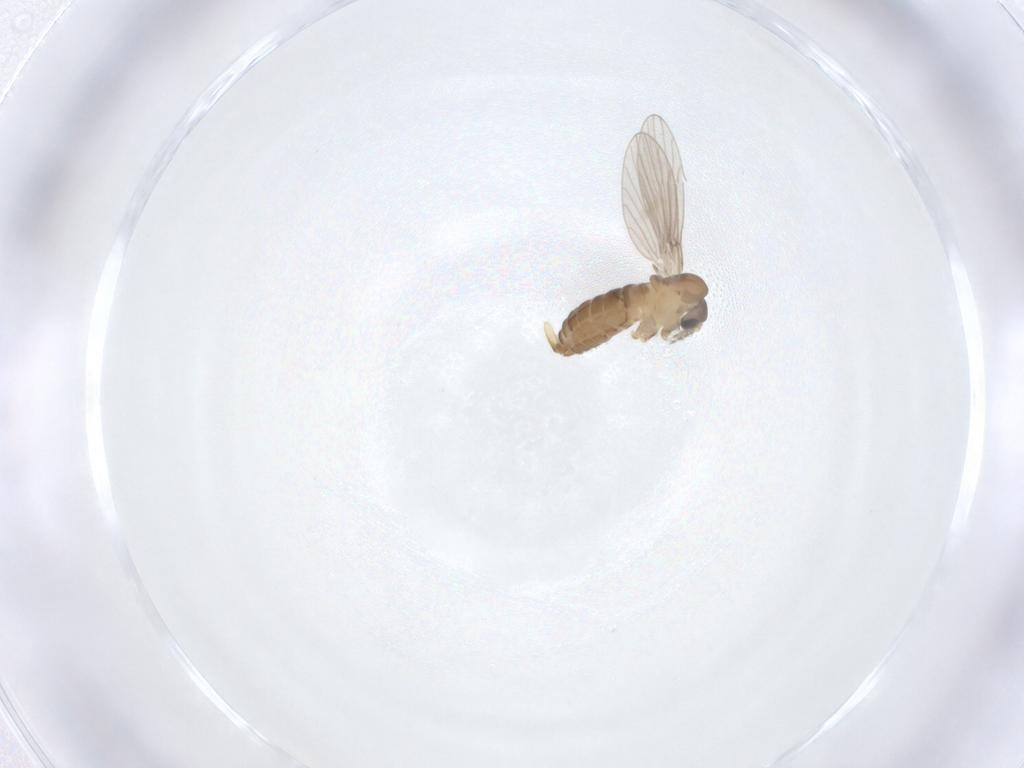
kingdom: Animalia
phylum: Arthropoda
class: Insecta
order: Diptera
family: Psychodidae
